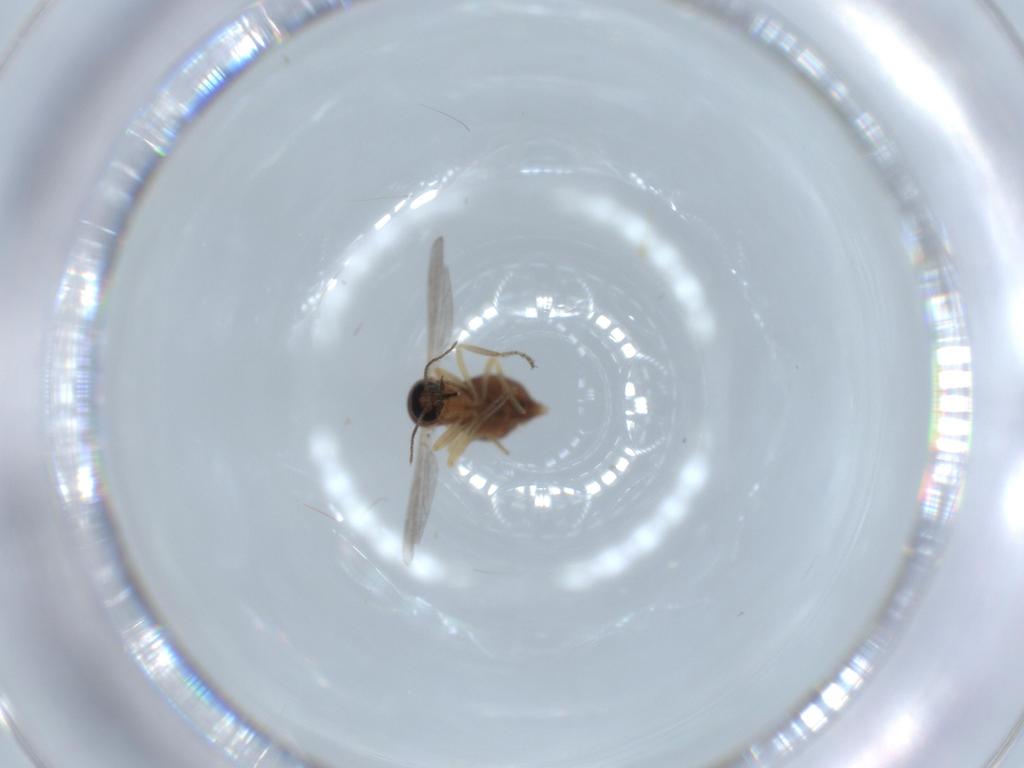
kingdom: Animalia
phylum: Arthropoda
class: Insecta
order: Diptera
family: Ceratopogonidae
